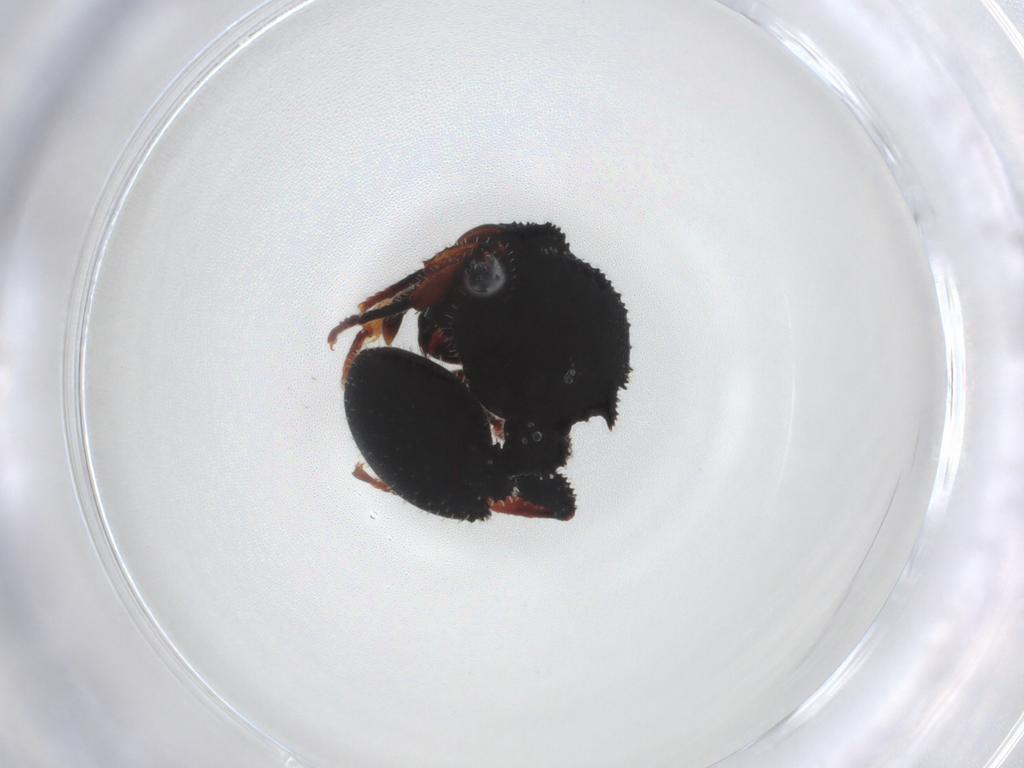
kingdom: Animalia
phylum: Arthropoda
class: Insecta
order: Hymenoptera
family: Formicidae
